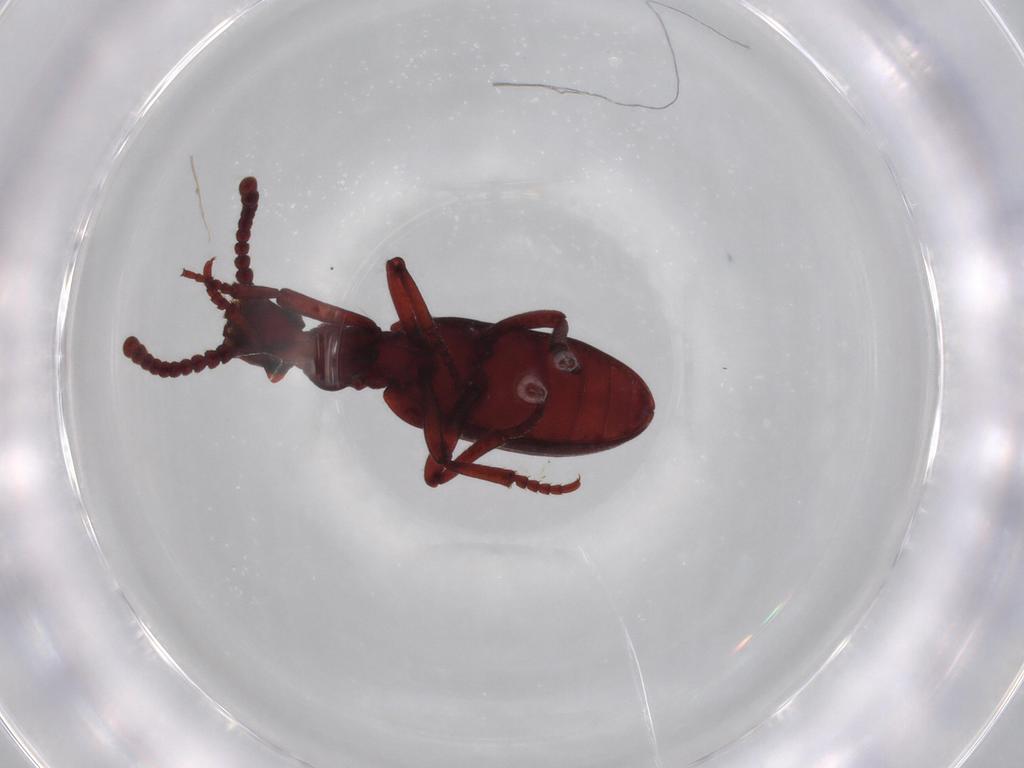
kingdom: Animalia
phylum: Arthropoda
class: Insecta
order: Coleoptera
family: Anthicidae
